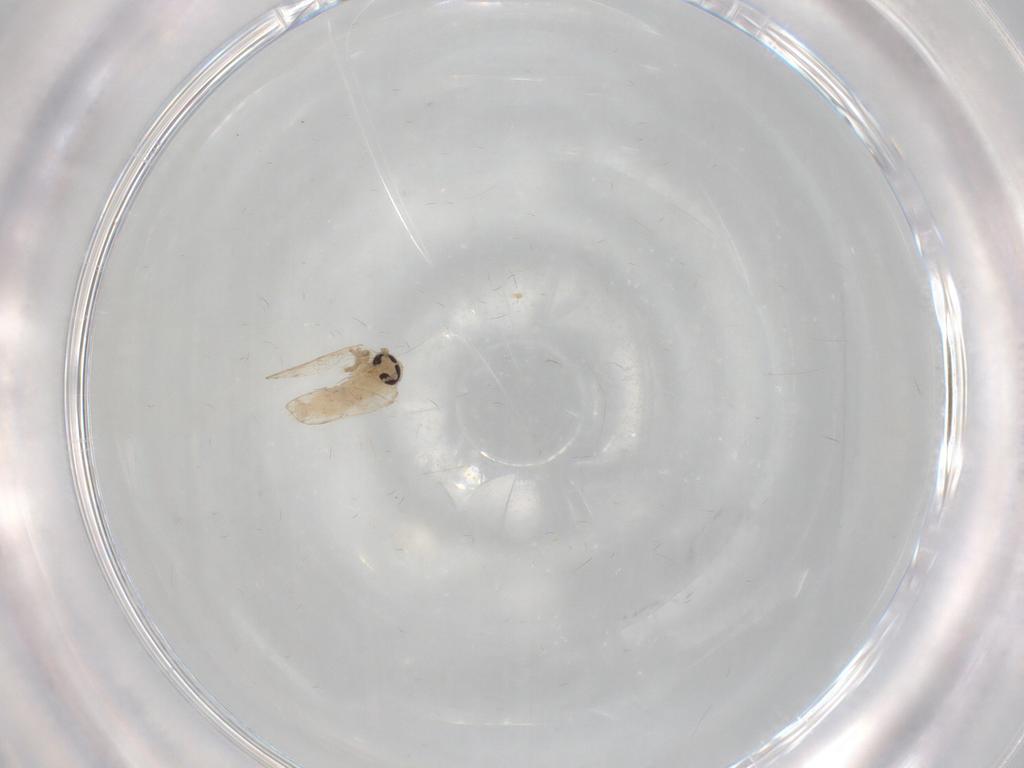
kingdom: Animalia
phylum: Arthropoda
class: Insecta
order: Diptera
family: Psychodidae
